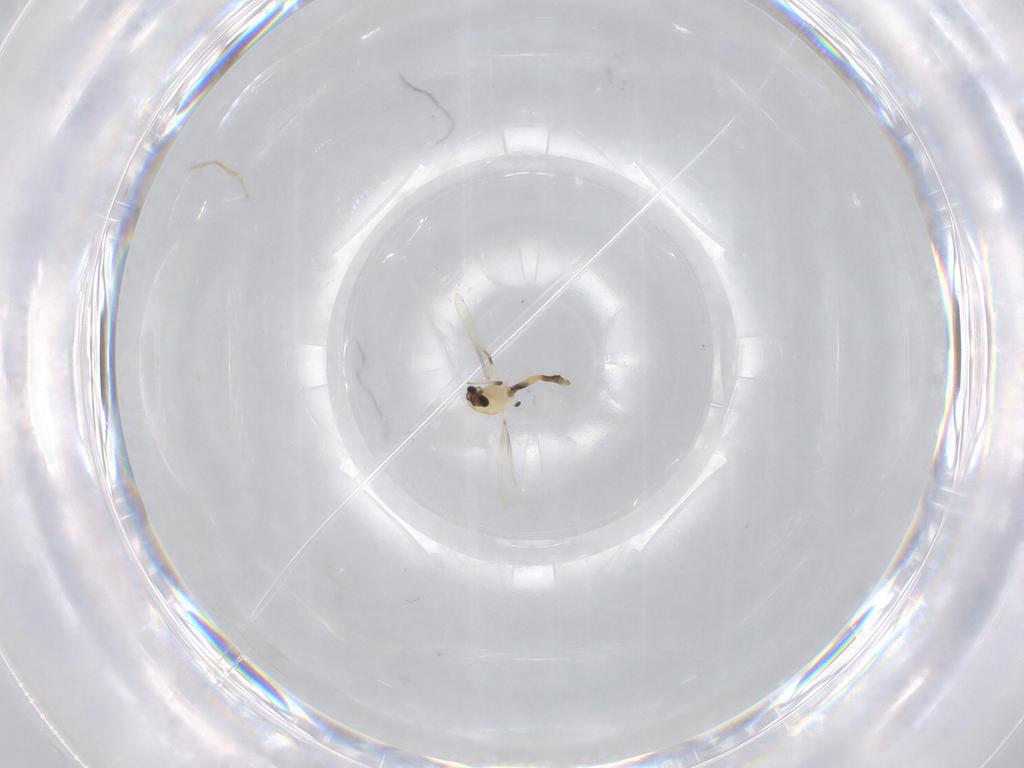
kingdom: Animalia
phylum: Arthropoda
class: Insecta
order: Diptera
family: Chironomidae
